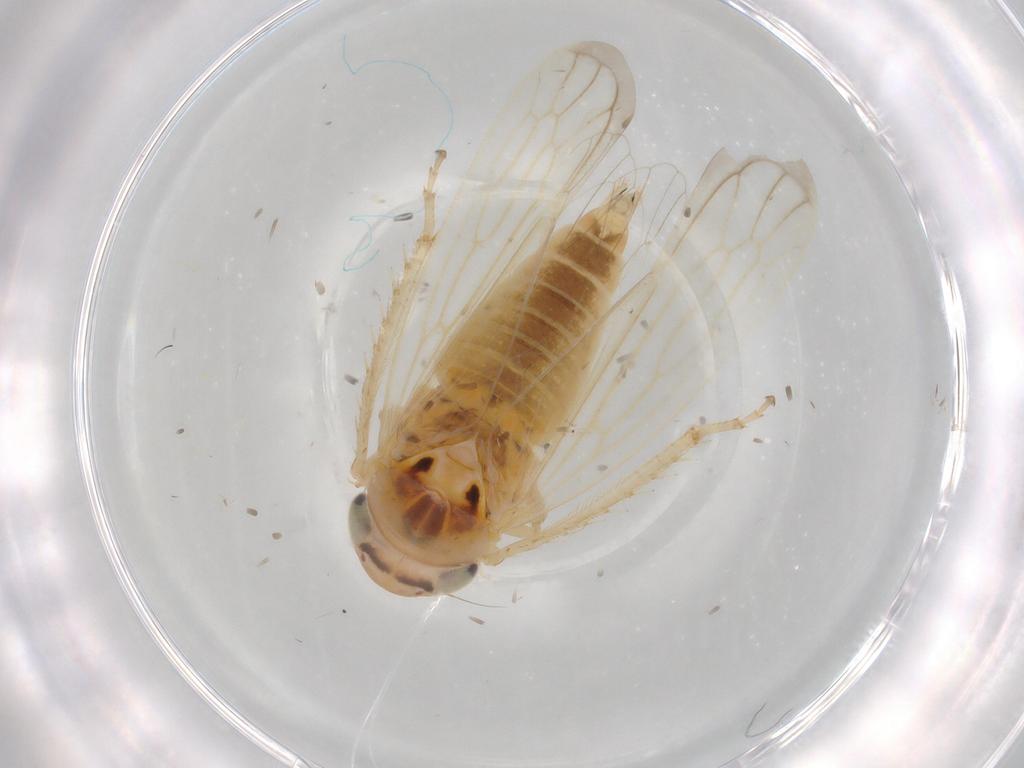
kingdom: Animalia
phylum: Arthropoda
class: Insecta
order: Hemiptera
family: Cicadellidae
